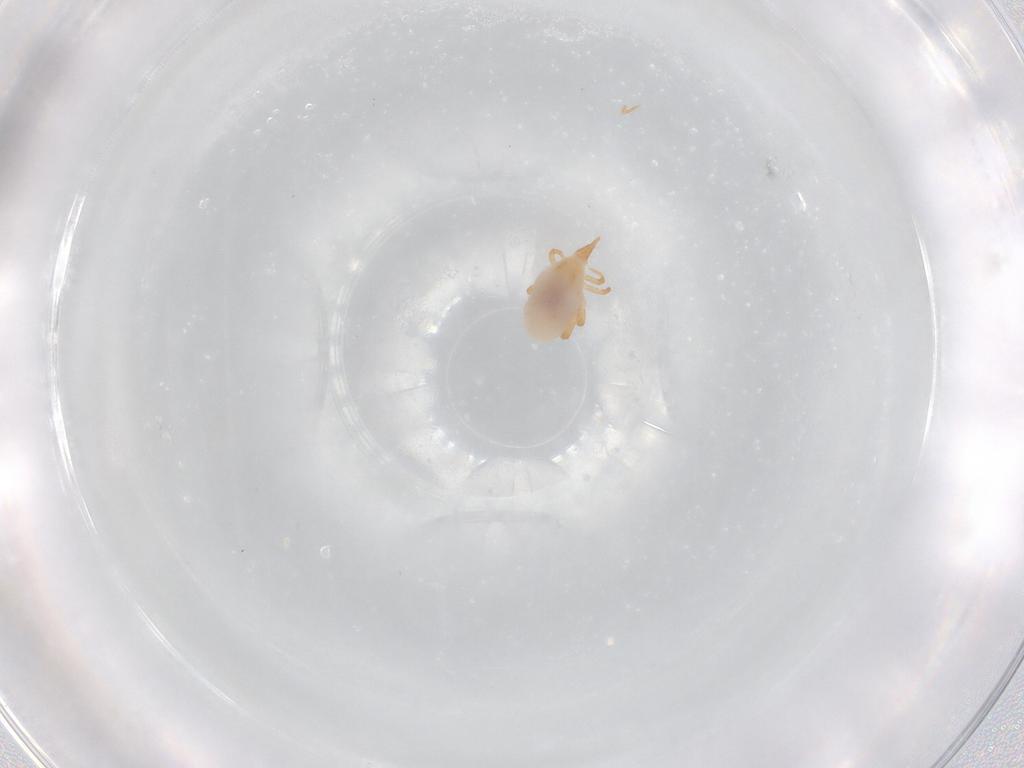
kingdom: Animalia
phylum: Arthropoda
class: Arachnida
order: Trombidiformes
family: Bdellidae
